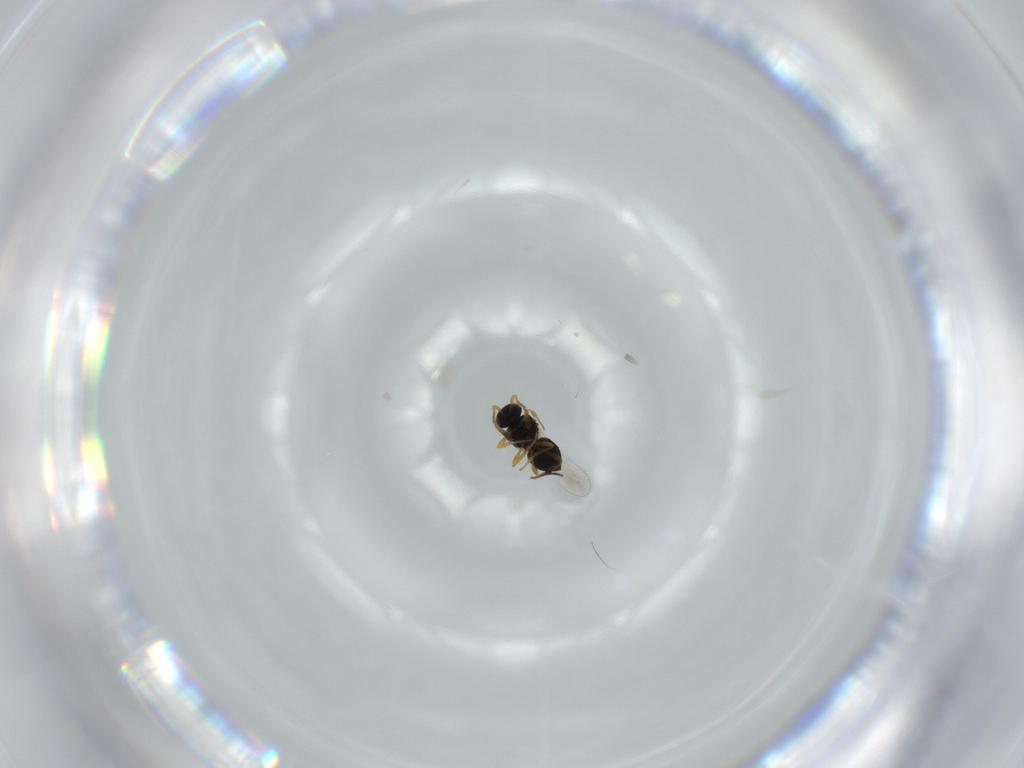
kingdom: Animalia
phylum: Arthropoda
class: Insecta
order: Hymenoptera
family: Platygastridae
